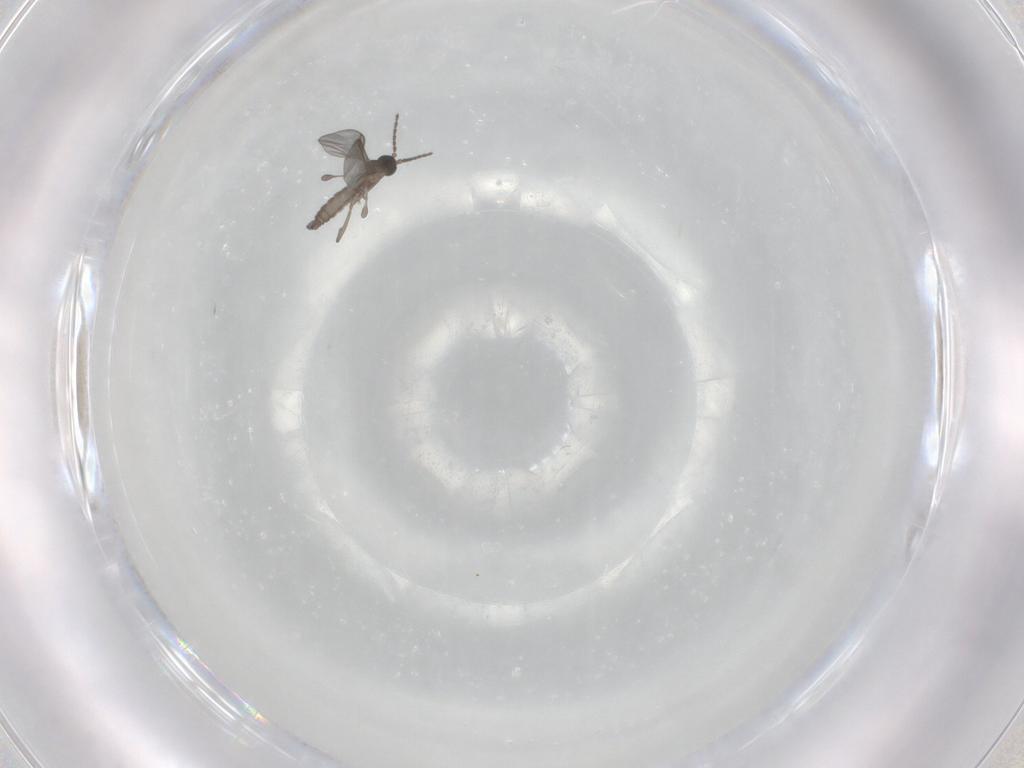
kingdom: Animalia
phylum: Arthropoda
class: Insecta
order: Diptera
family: Sciaridae
